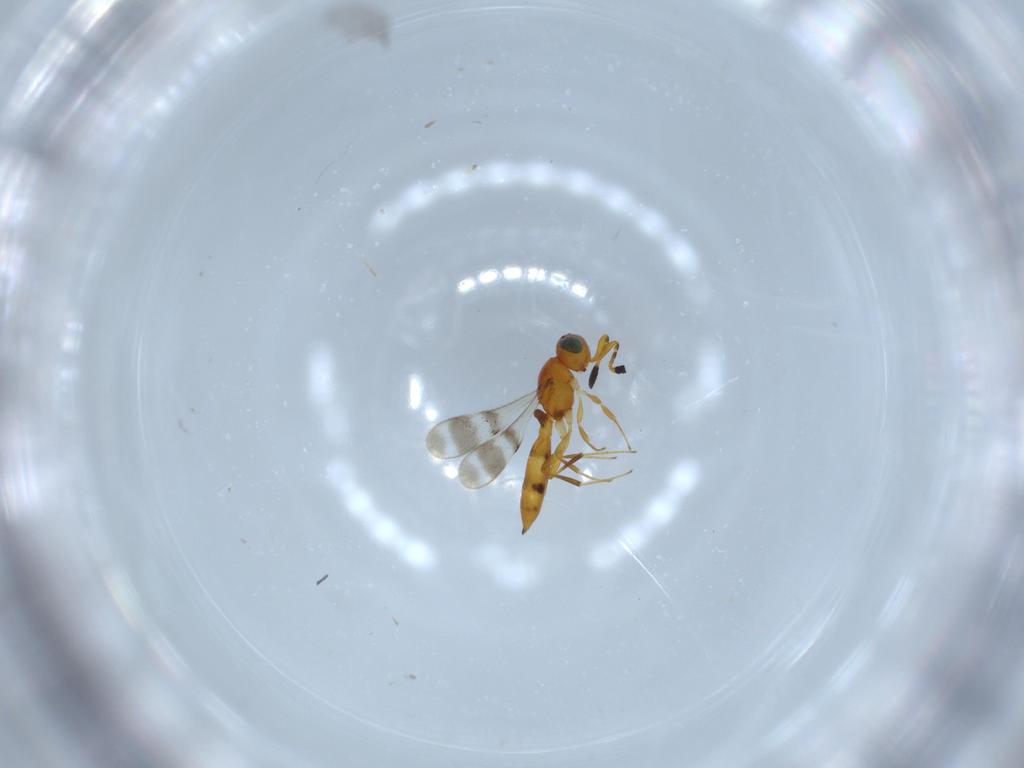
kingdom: Animalia
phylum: Arthropoda
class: Insecta
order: Hymenoptera
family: Scelionidae
